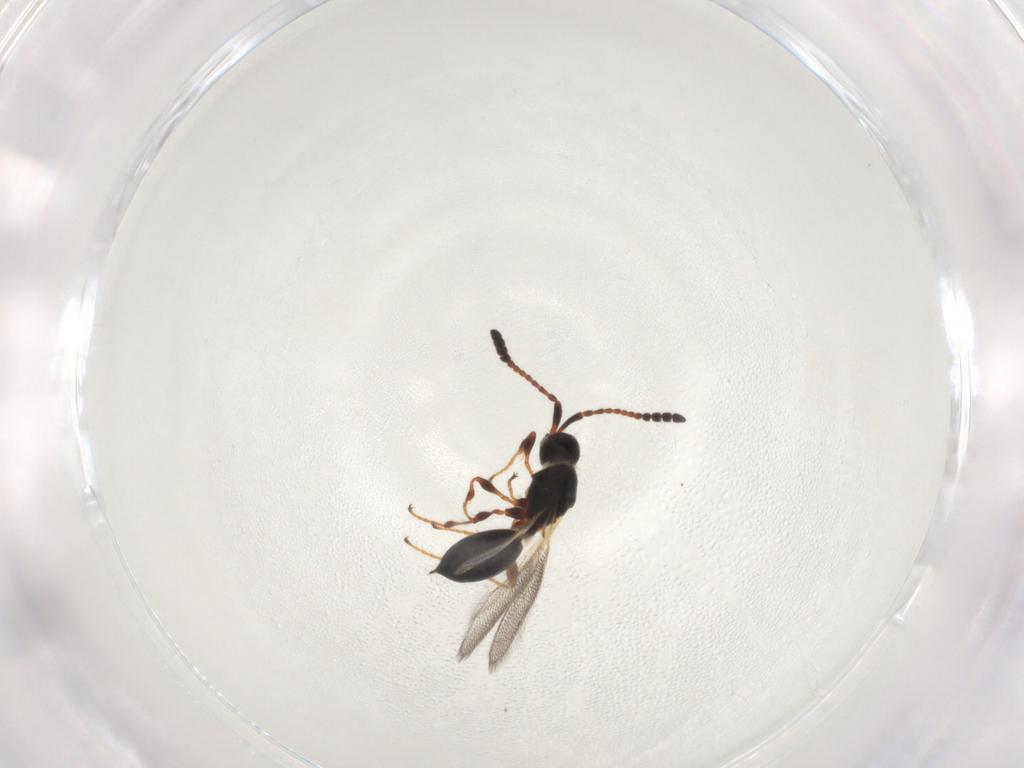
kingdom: Animalia
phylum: Arthropoda
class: Insecta
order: Hymenoptera
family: Diapriidae
